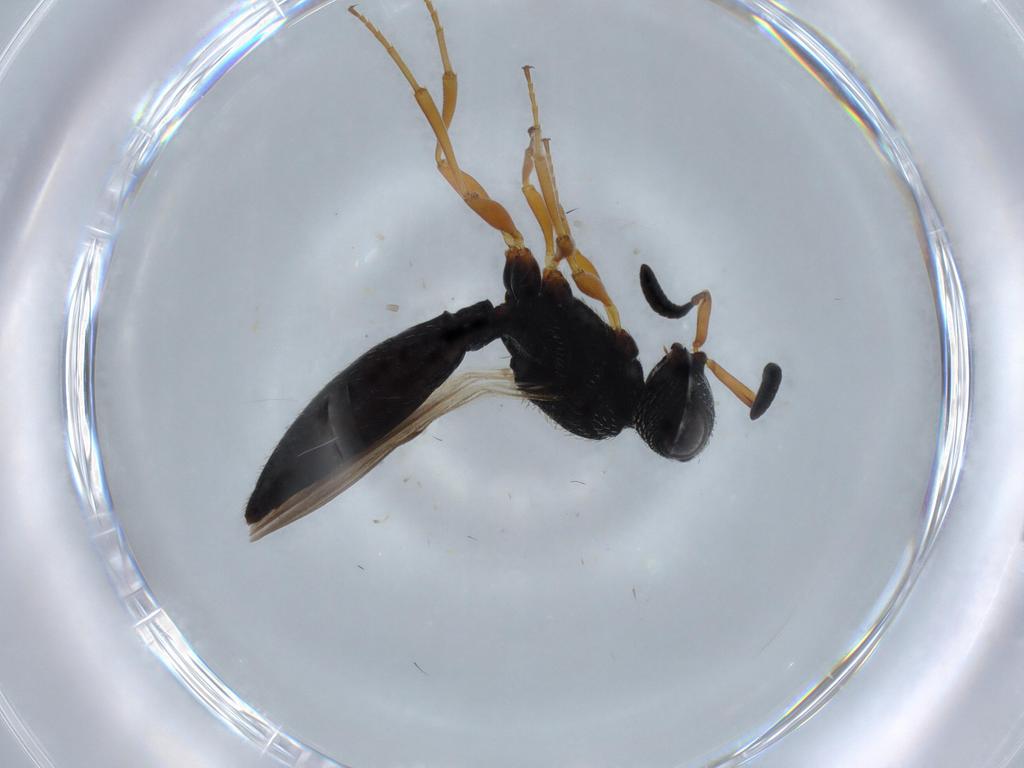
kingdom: Animalia
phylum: Arthropoda
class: Insecta
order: Hymenoptera
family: Scelionidae
